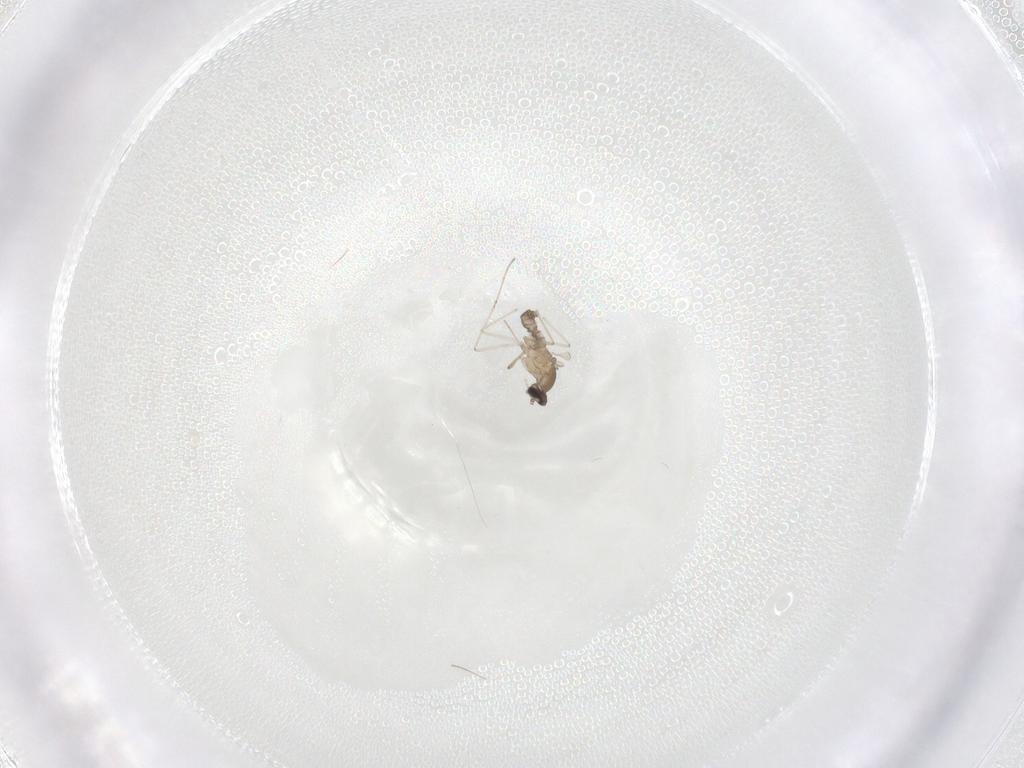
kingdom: Animalia
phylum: Arthropoda
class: Insecta
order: Diptera
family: Cecidomyiidae
